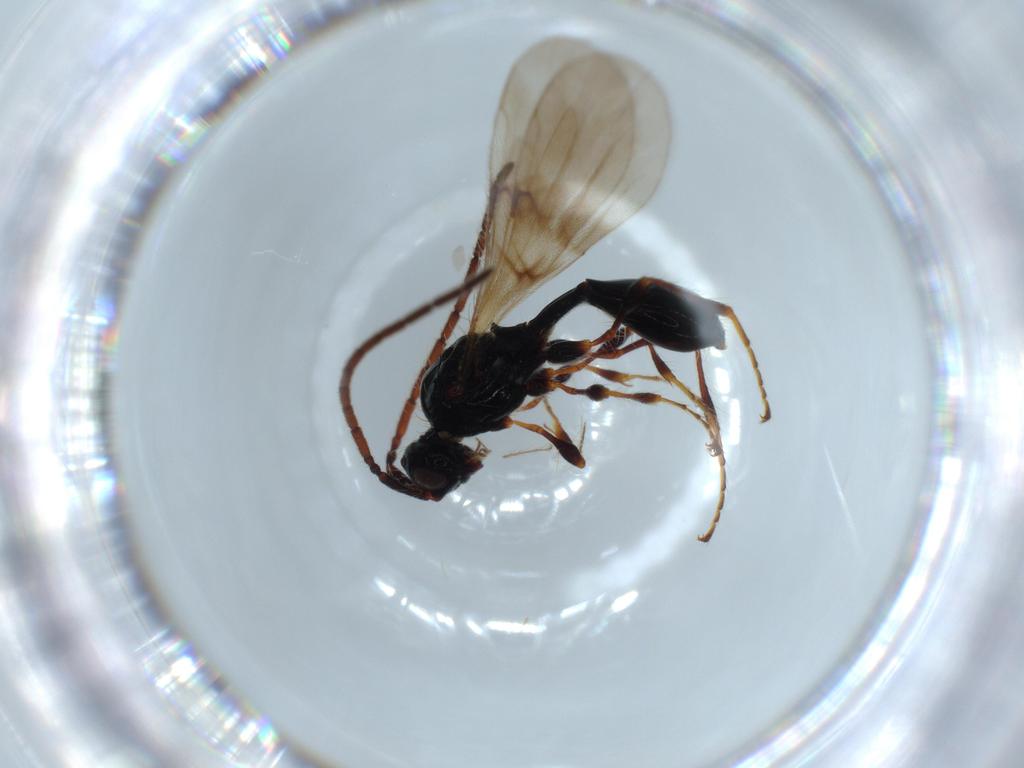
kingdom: Animalia
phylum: Arthropoda
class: Insecta
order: Hymenoptera
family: Diapriidae
